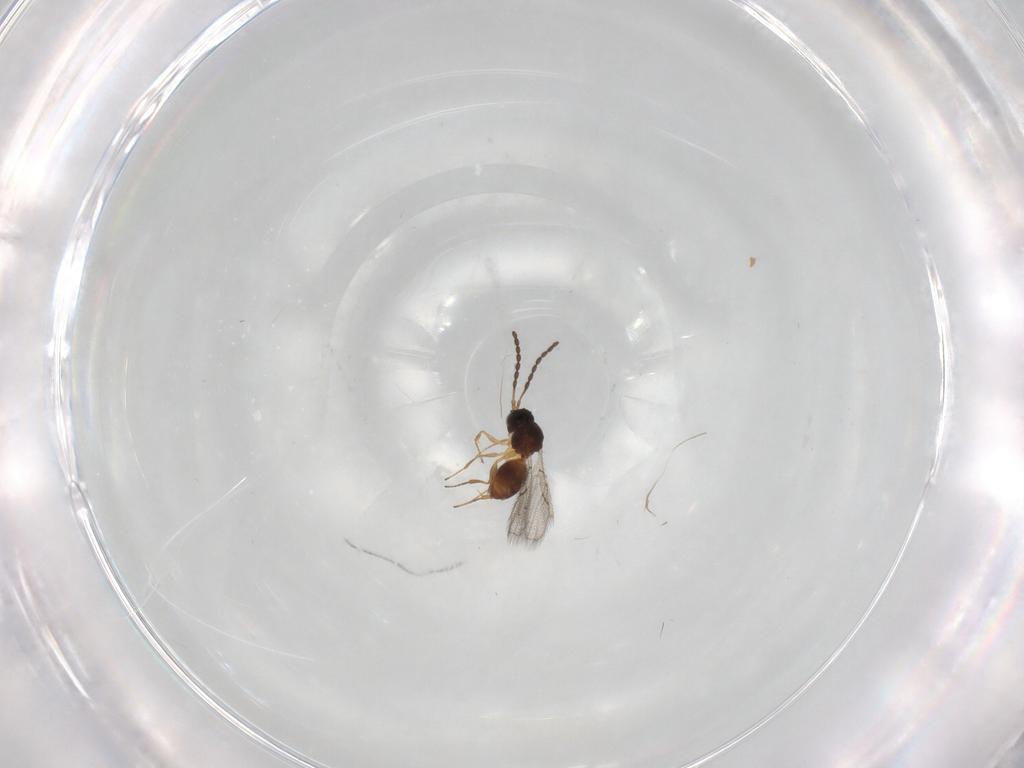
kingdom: Animalia
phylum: Arthropoda
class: Insecta
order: Hymenoptera
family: Figitidae
